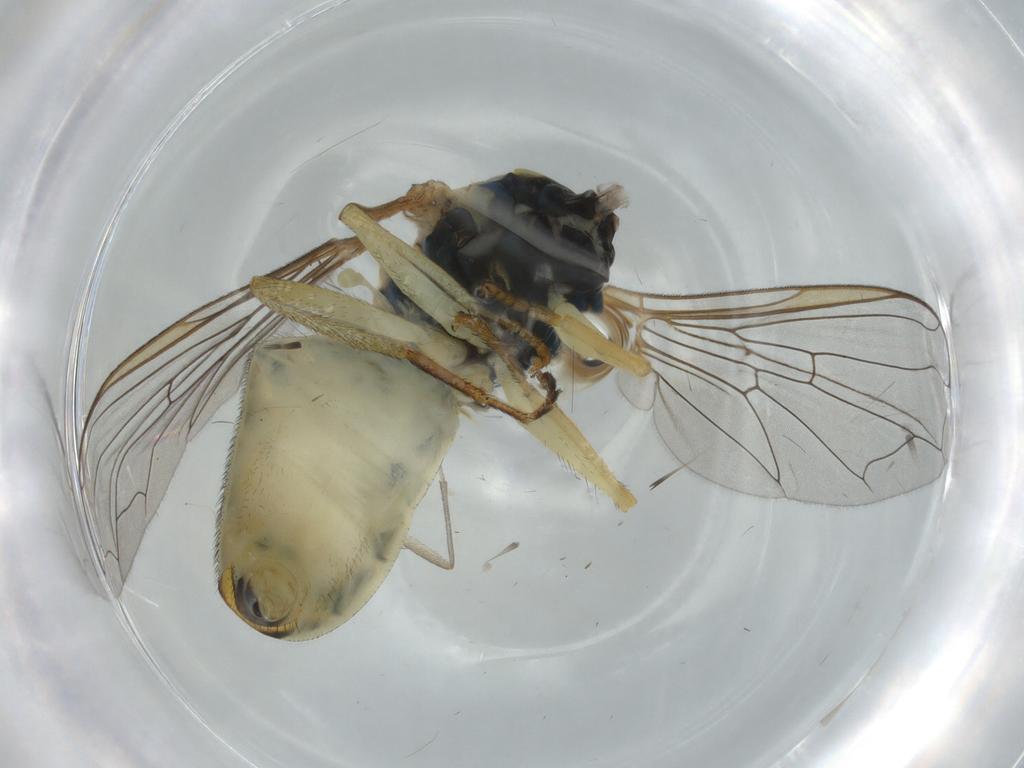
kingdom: Animalia
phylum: Arthropoda
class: Insecta
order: Diptera
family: Syrphidae
